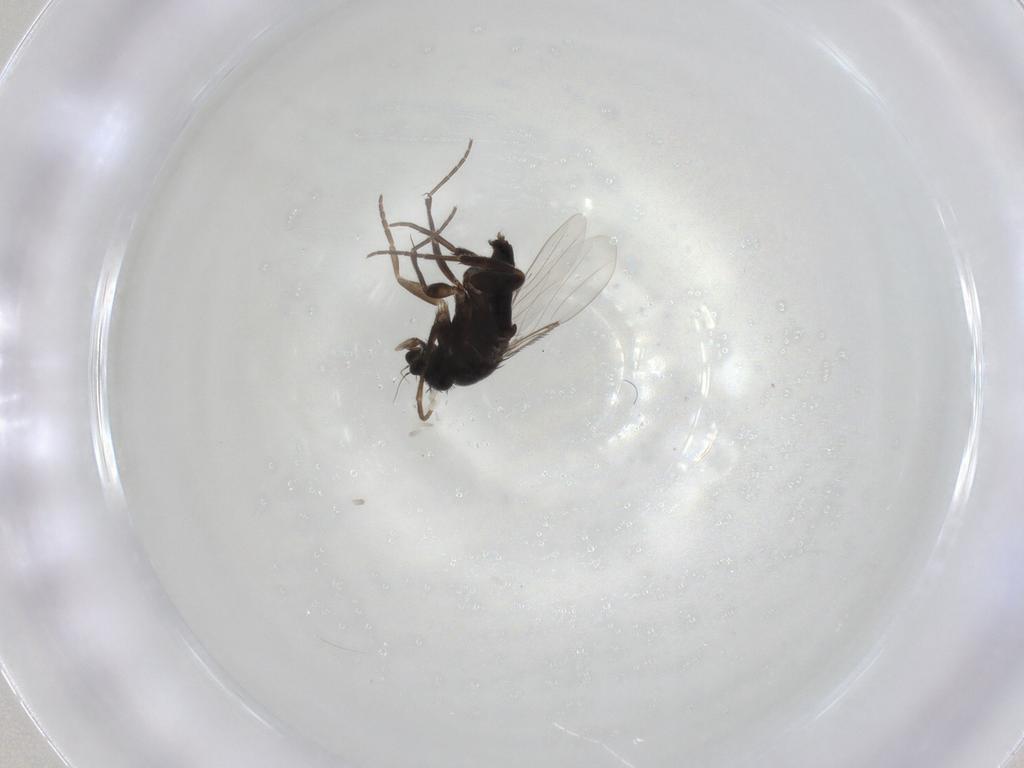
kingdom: Animalia
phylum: Arthropoda
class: Insecta
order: Diptera
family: Phoridae
